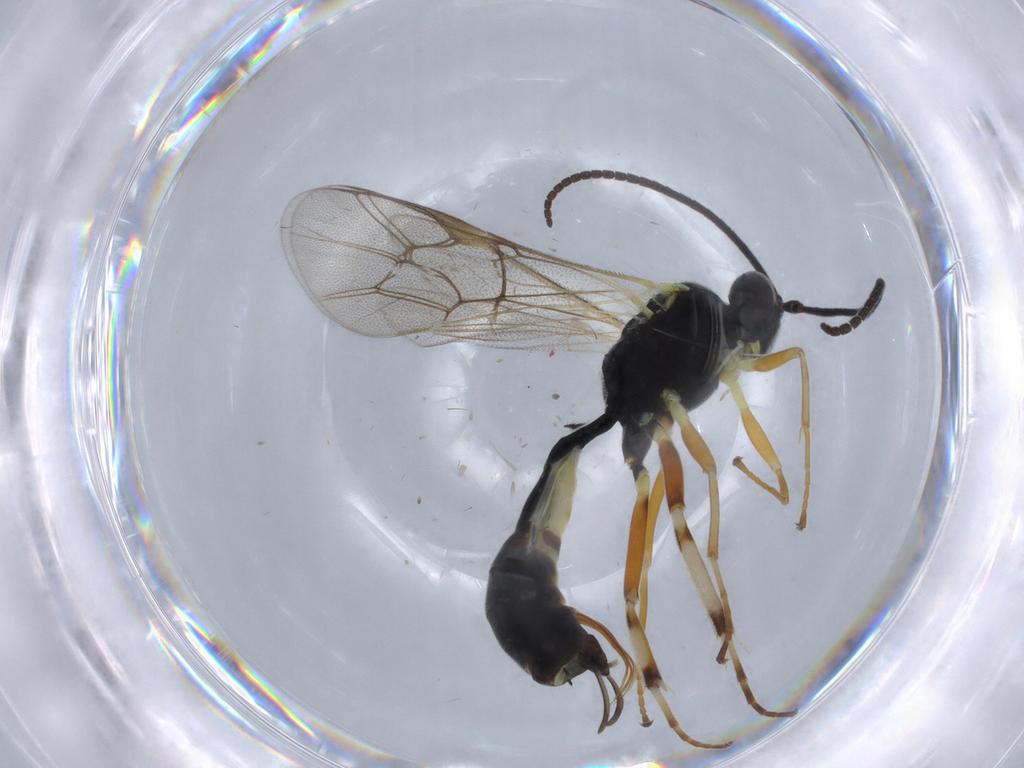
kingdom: Animalia
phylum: Arthropoda
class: Insecta
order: Hymenoptera
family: Ichneumonidae
